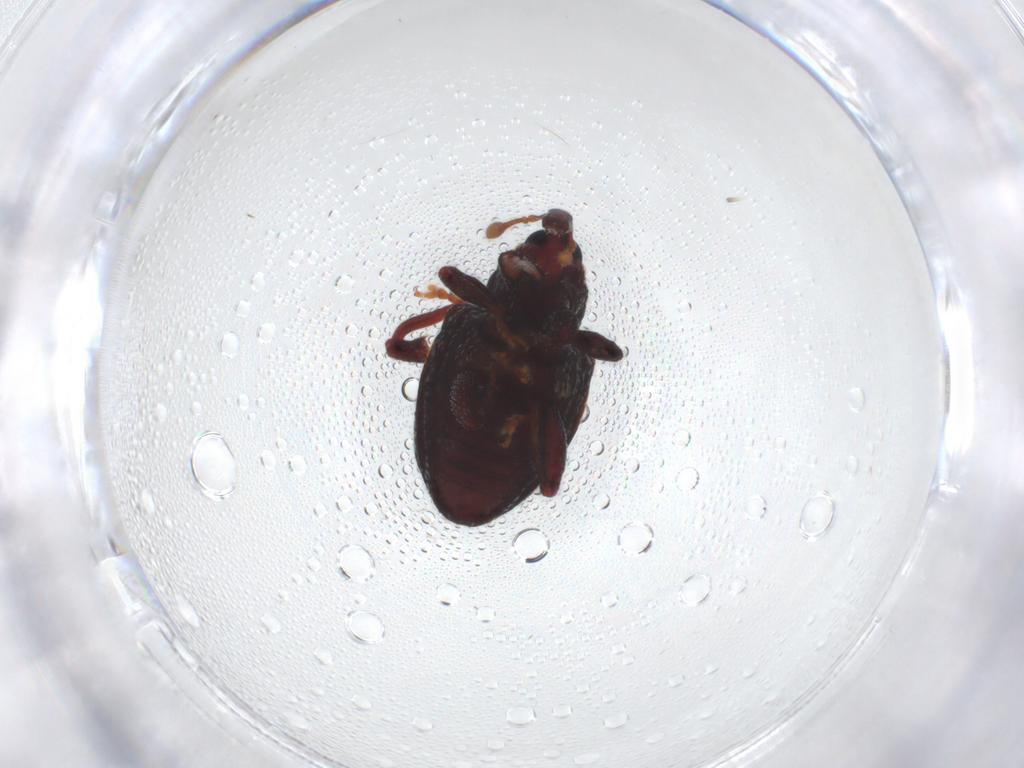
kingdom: Animalia
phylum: Arthropoda
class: Insecta
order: Coleoptera
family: Curculionidae
